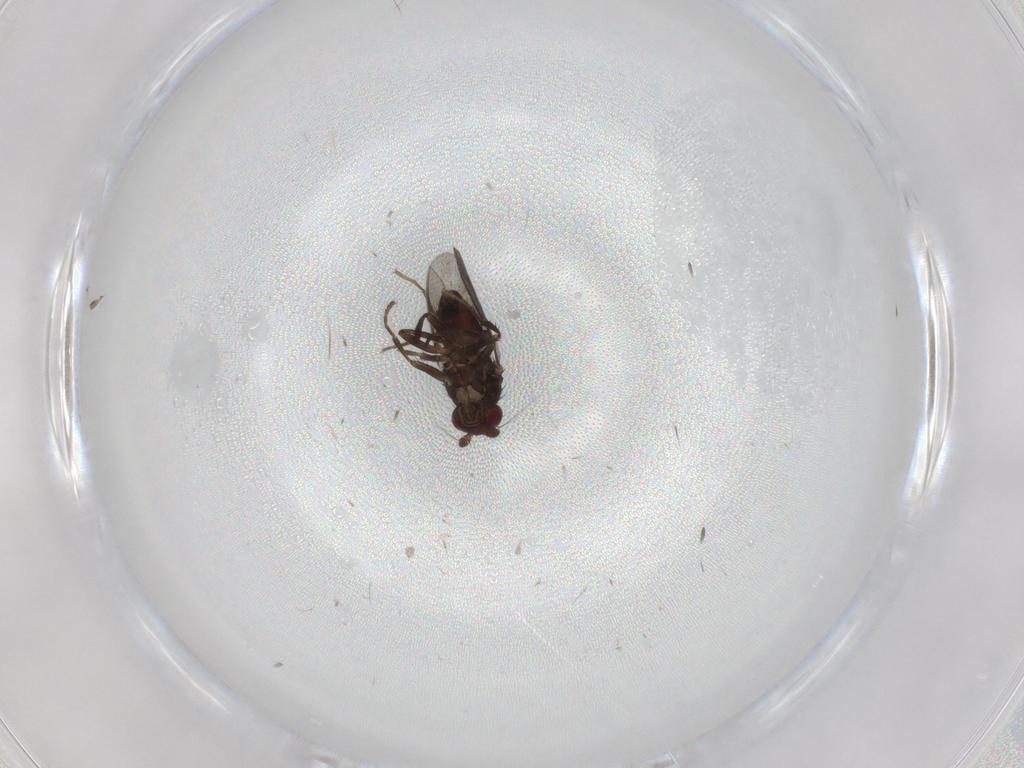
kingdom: Animalia
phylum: Arthropoda
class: Insecta
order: Diptera
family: Sphaeroceridae
